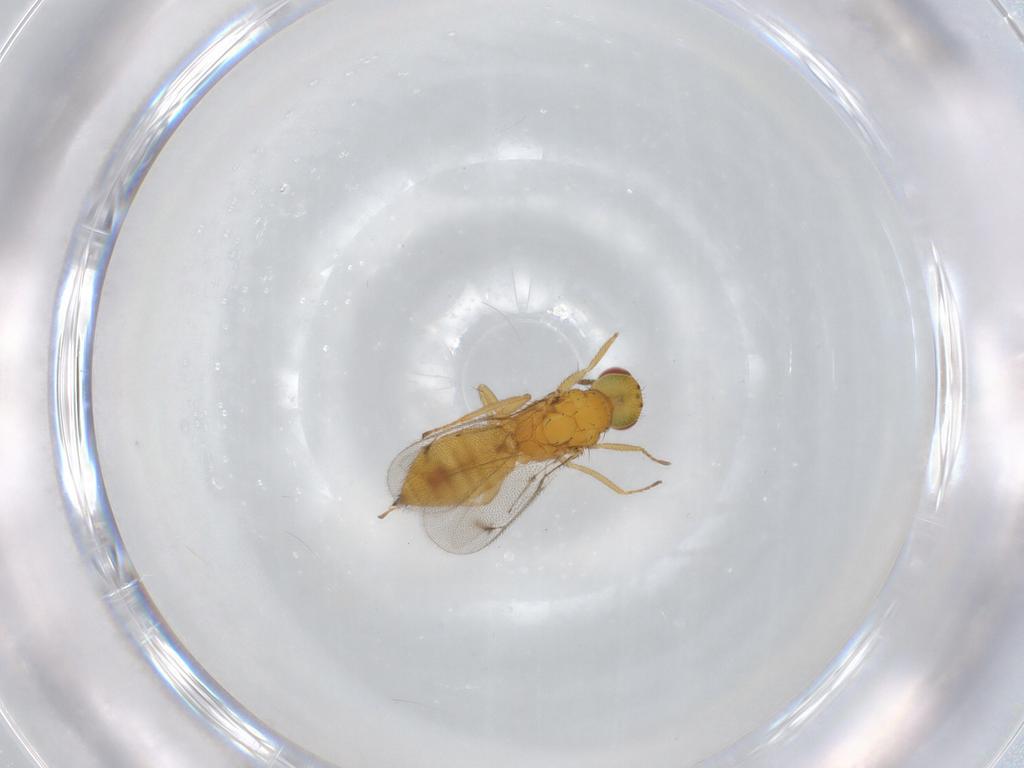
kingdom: Animalia
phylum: Arthropoda
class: Insecta
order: Hymenoptera
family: Eulophidae
